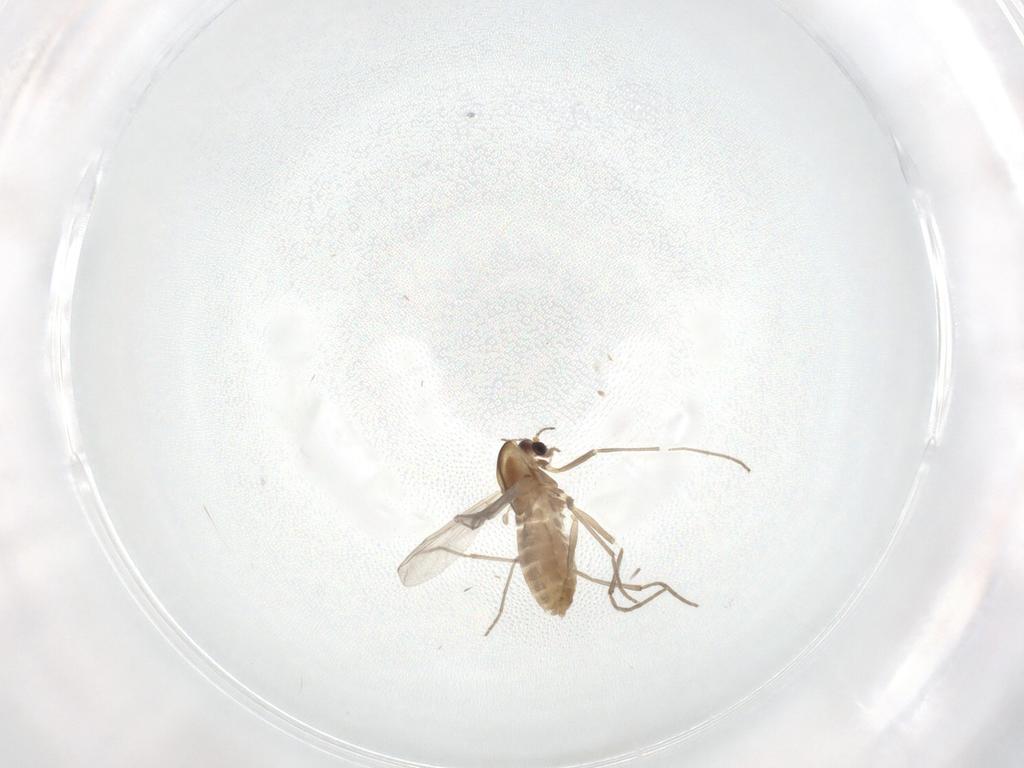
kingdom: Animalia
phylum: Arthropoda
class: Insecta
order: Diptera
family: Chironomidae
